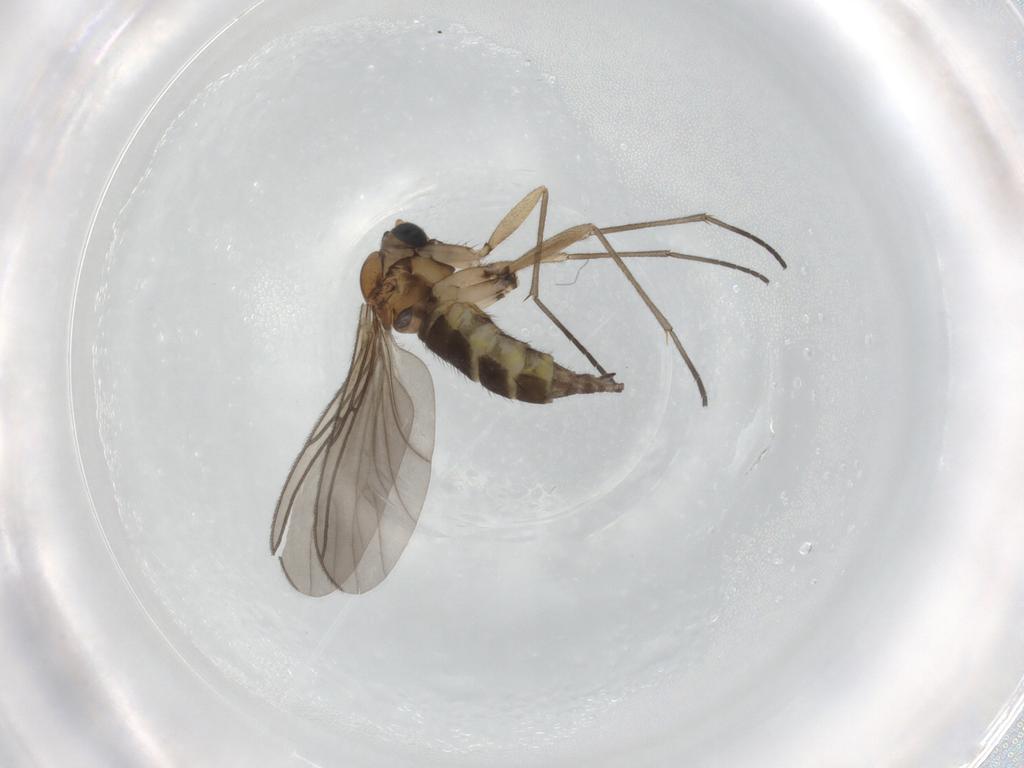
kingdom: Animalia
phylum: Arthropoda
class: Insecta
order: Diptera
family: Sciaridae
